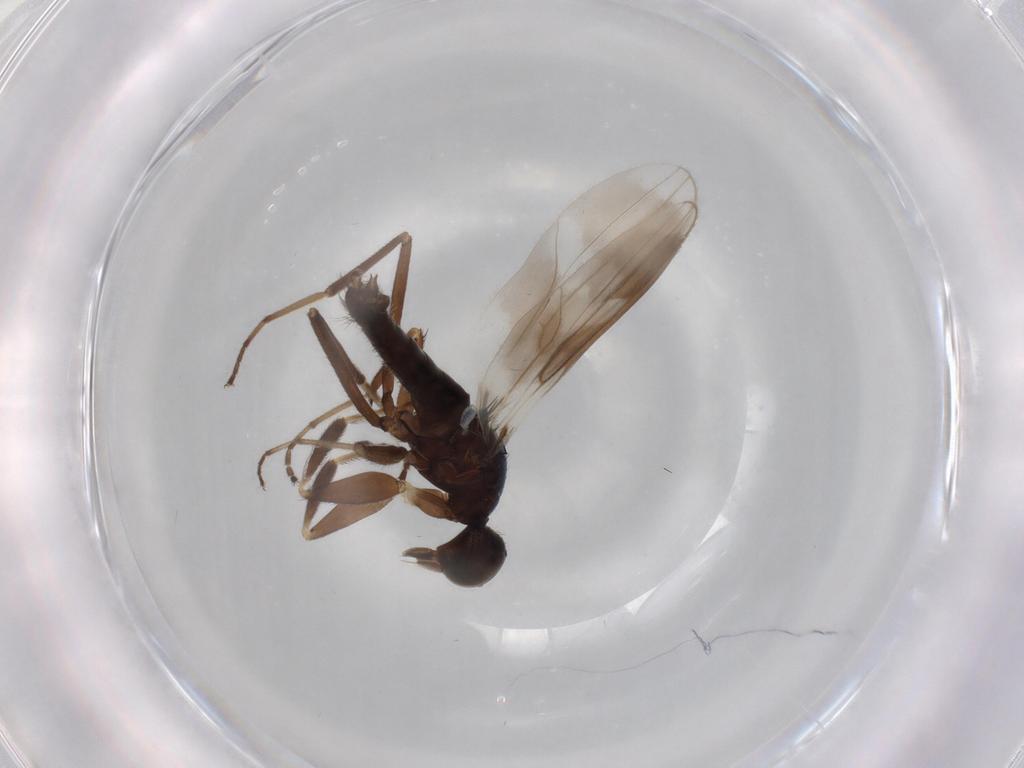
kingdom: Animalia
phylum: Arthropoda
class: Insecta
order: Diptera
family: Hybotidae
